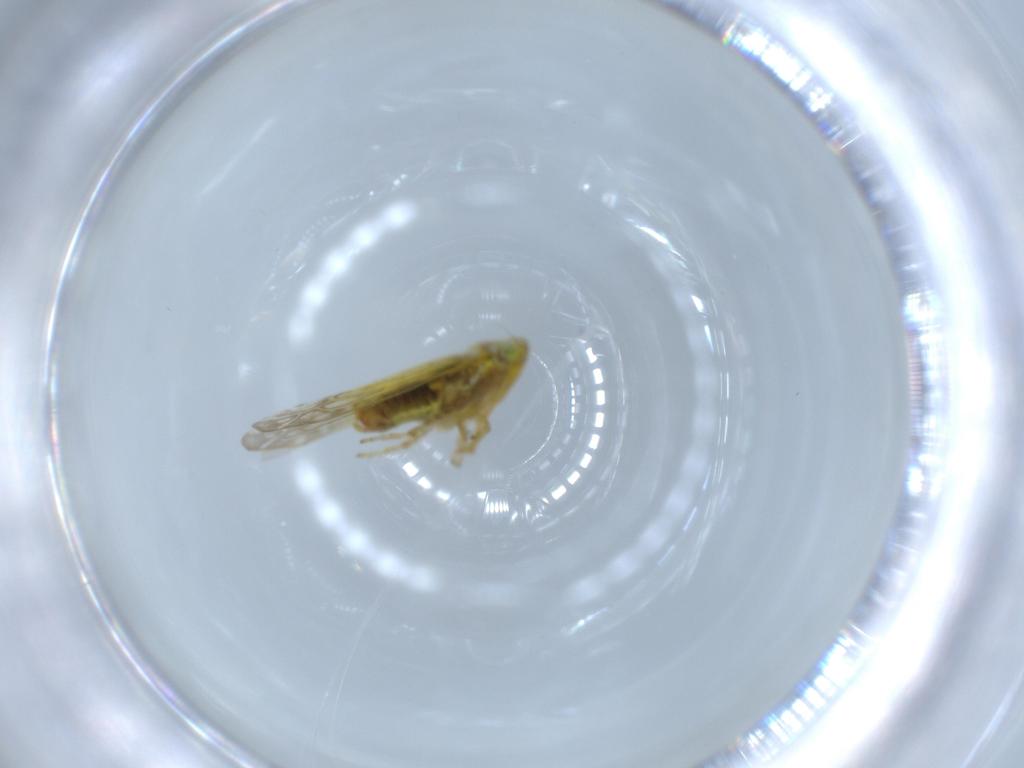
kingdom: Animalia
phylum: Arthropoda
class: Insecta
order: Hemiptera
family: Cicadellidae
